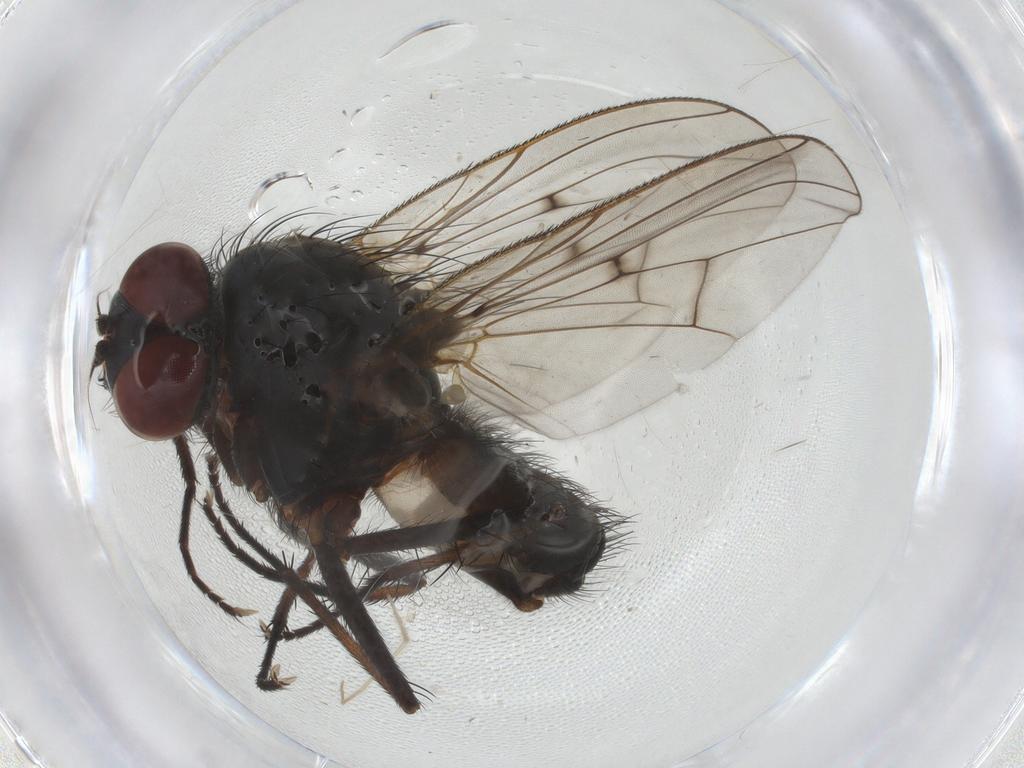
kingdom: Animalia
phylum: Arthropoda
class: Insecta
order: Diptera
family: Anthomyiidae
